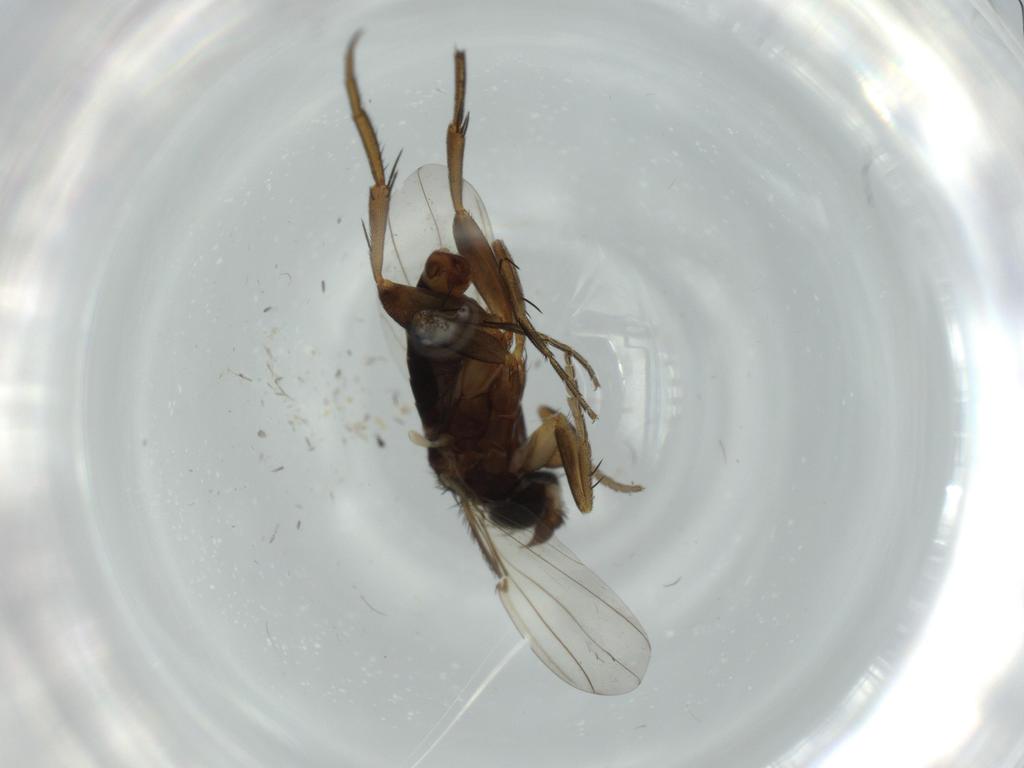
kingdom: Animalia
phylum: Arthropoda
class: Insecta
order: Diptera
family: Phoridae
